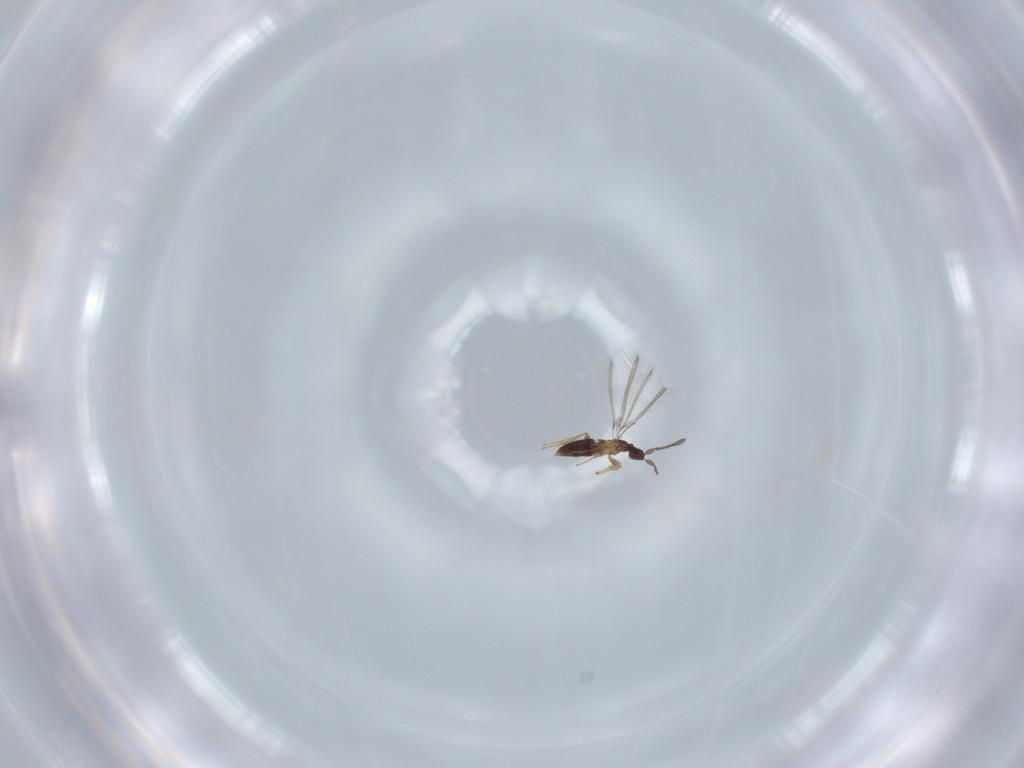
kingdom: Animalia
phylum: Arthropoda
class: Insecta
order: Hymenoptera
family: Mymaridae
